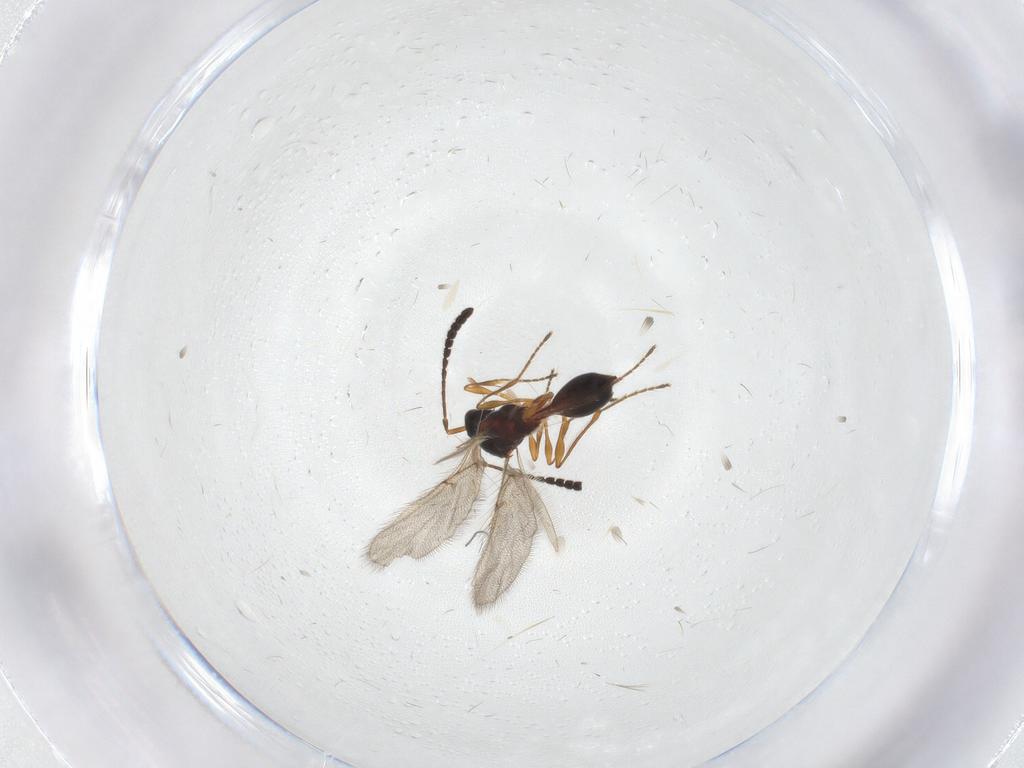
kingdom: Animalia
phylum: Arthropoda
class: Insecta
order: Hymenoptera
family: Diapriidae
